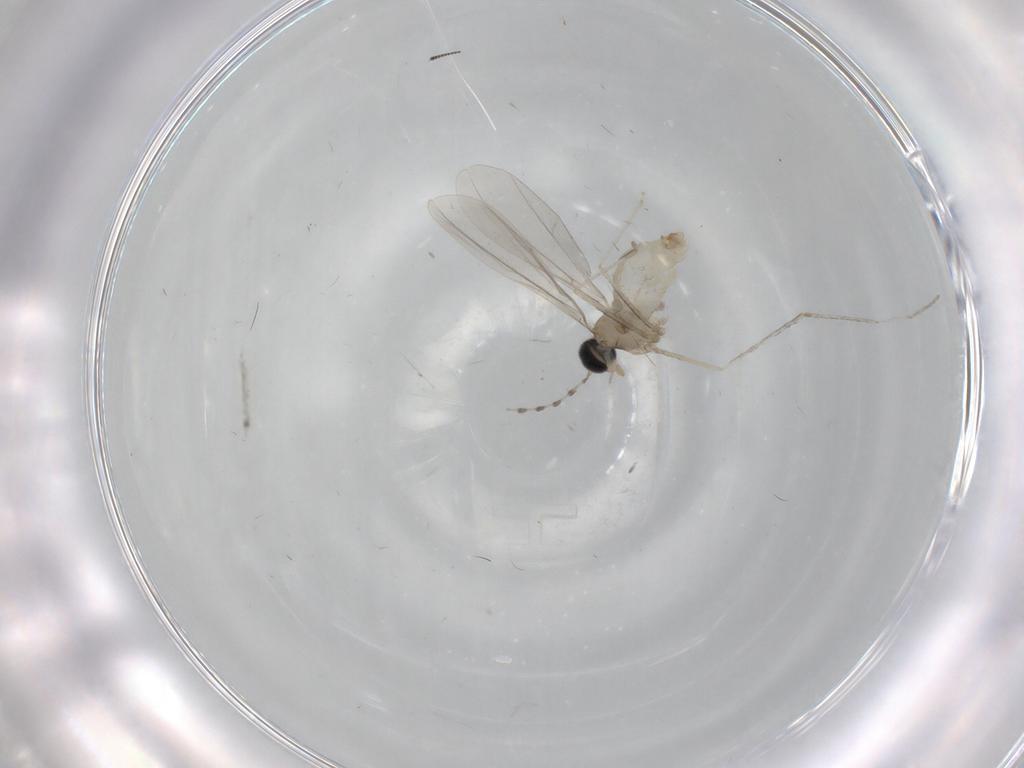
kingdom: Animalia
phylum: Arthropoda
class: Insecta
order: Diptera
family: Cecidomyiidae
